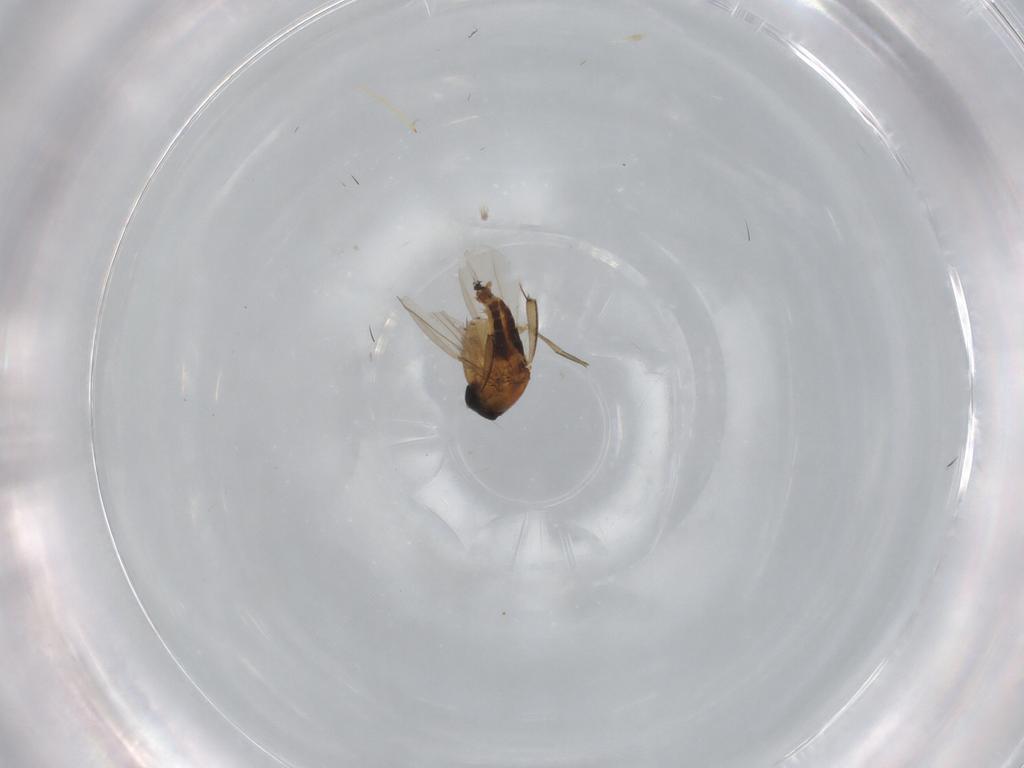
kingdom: Animalia
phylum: Arthropoda
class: Insecta
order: Diptera
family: Phoridae
